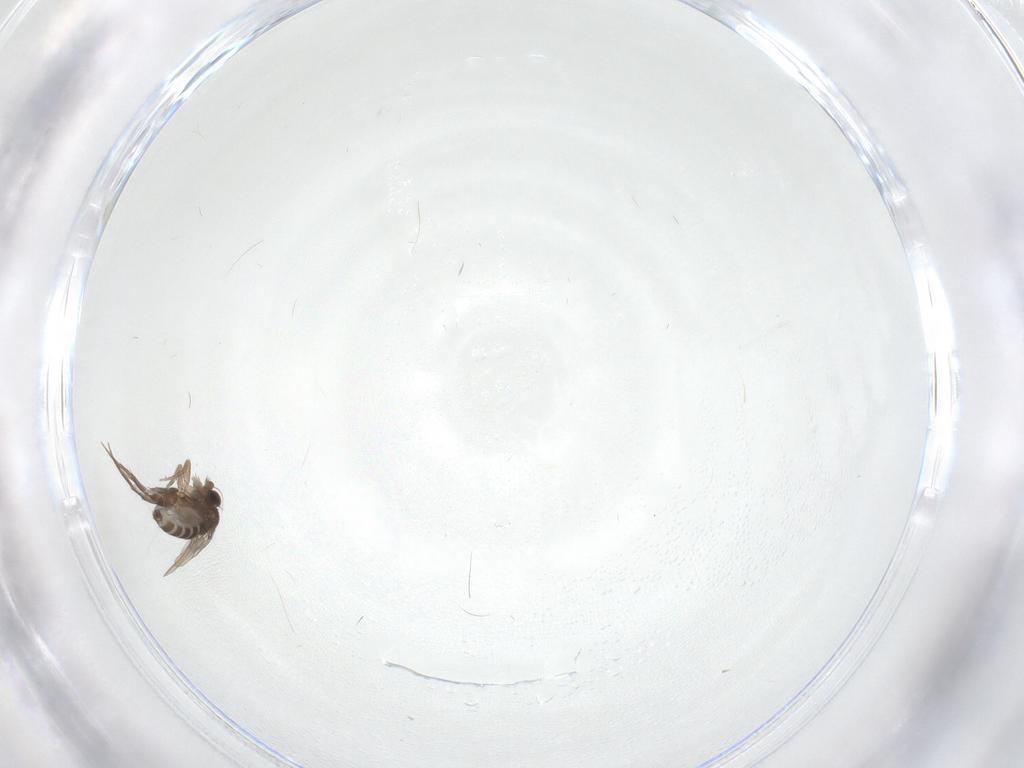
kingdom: Animalia
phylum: Arthropoda
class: Insecta
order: Diptera
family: Phoridae
